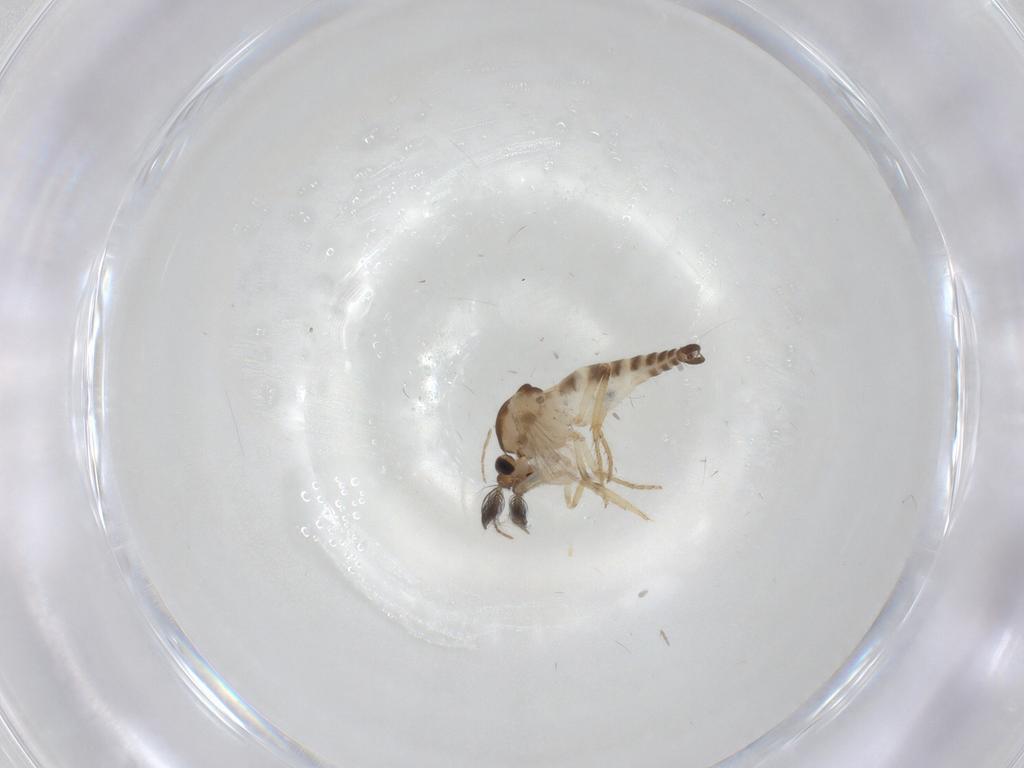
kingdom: Animalia
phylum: Arthropoda
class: Insecta
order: Diptera
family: Ceratopogonidae
